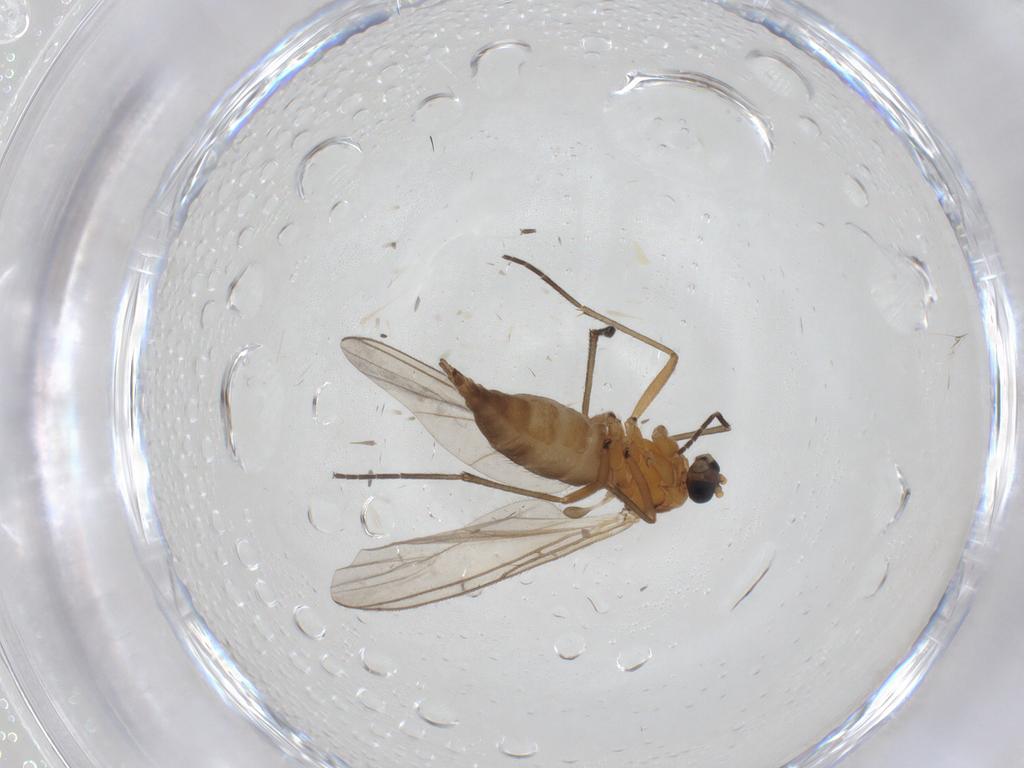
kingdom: Animalia
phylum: Arthropoda
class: Insecta
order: Diptera
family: Sciaridae
